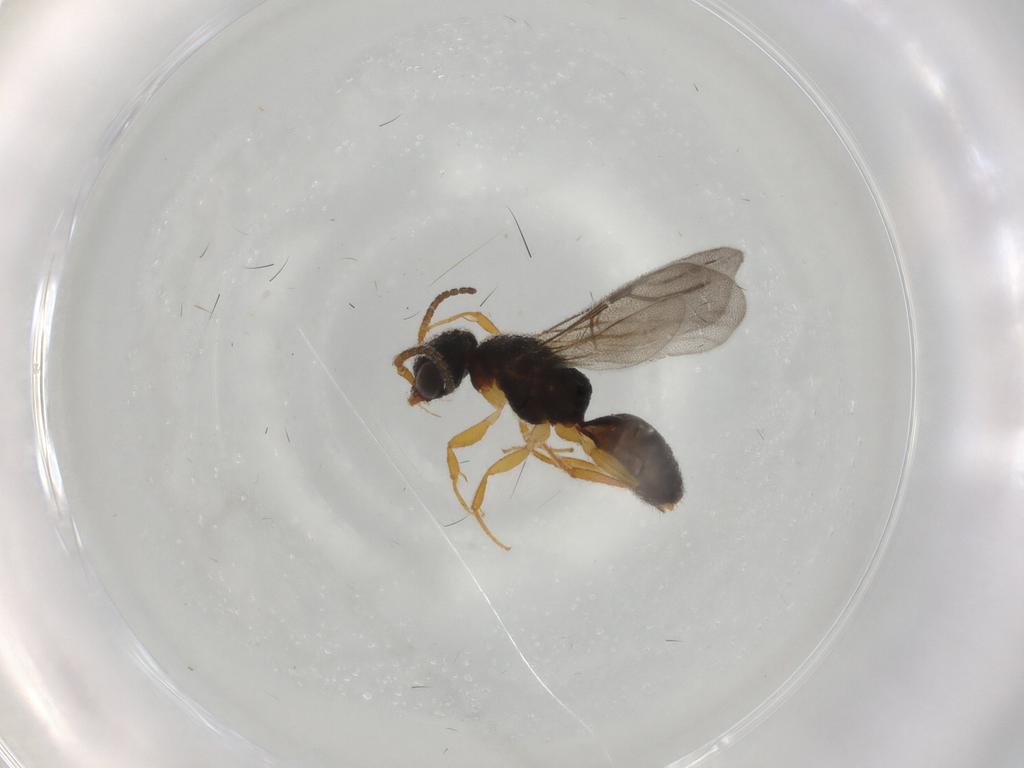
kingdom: Animalia
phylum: Arthropoda
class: Insecta
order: Hymenoptera
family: Bethylidae
